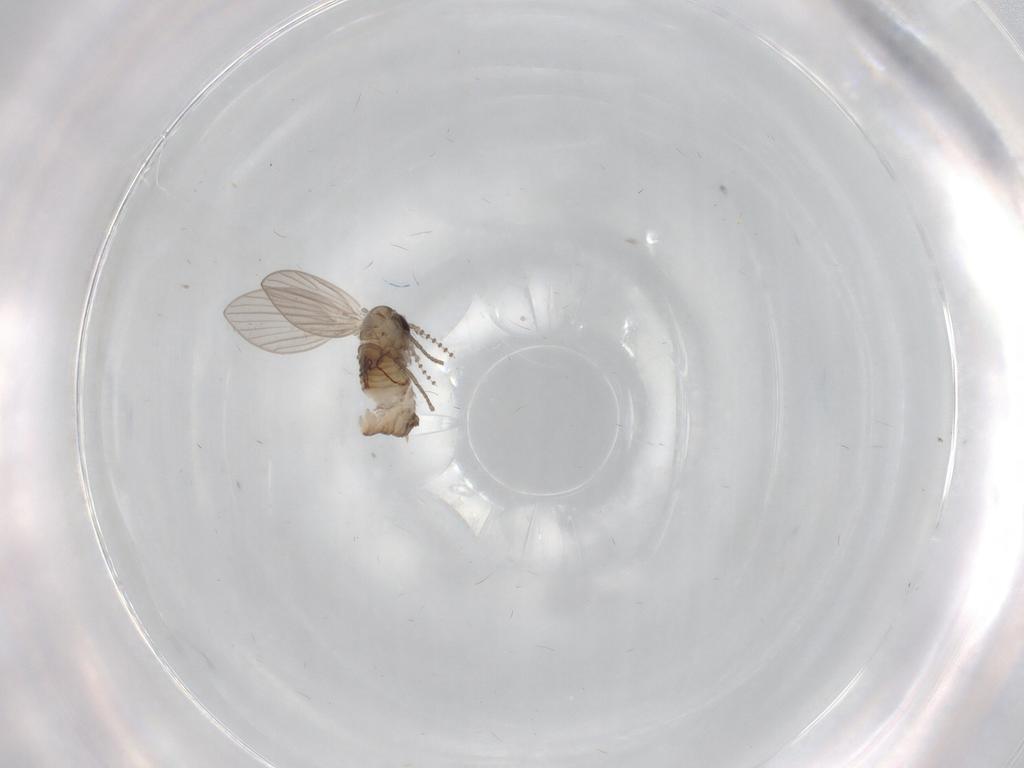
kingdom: Animalia
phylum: Arthropoda
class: Insecta
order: Diptera
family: Psychodidae
